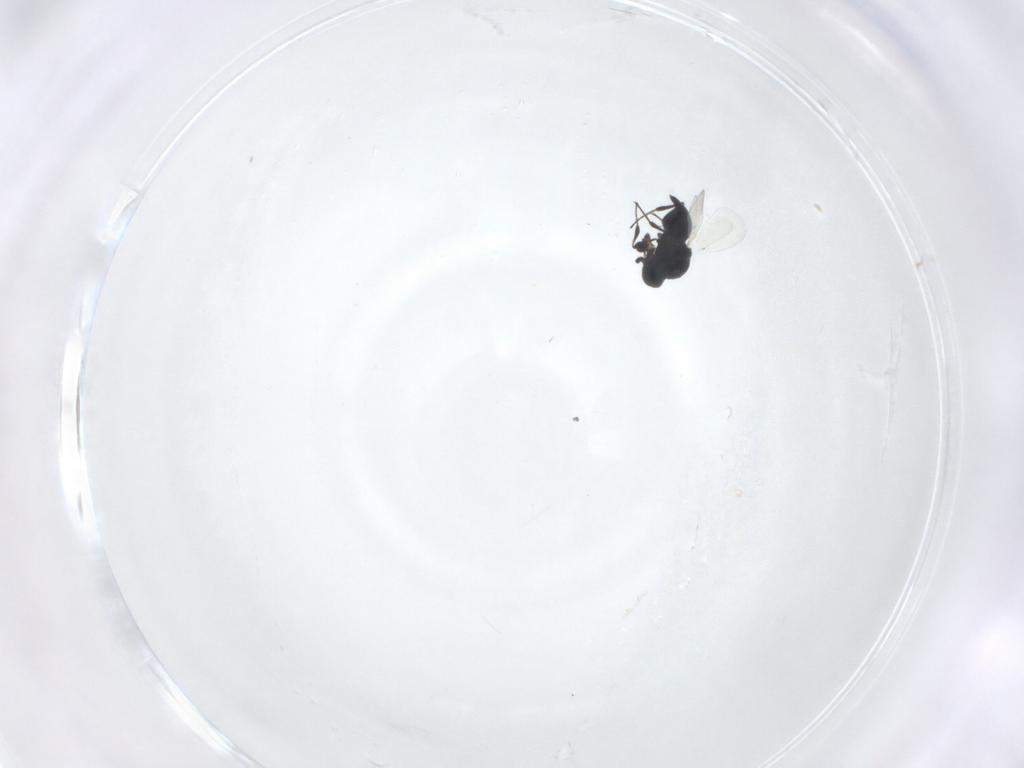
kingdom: Animalia
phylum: Arthropoda
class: Insecta
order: Hymenoptera
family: Platygastridae
